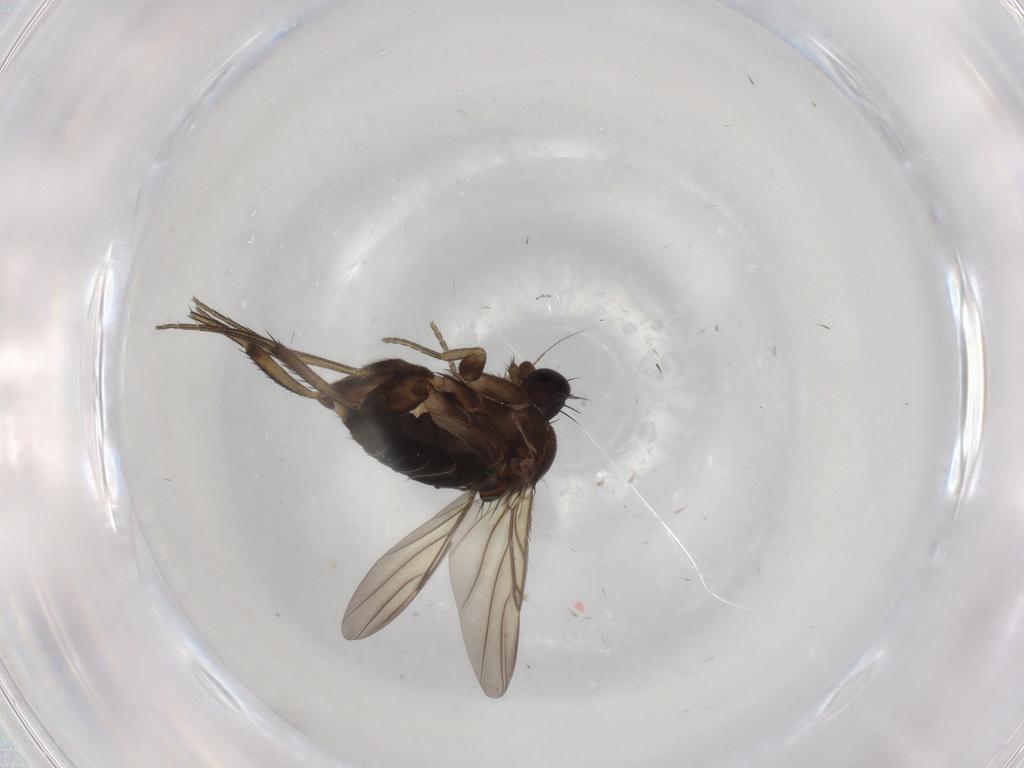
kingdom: Animalia
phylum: Arthropoda
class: Insecta
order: Diptera
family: Phoridae
